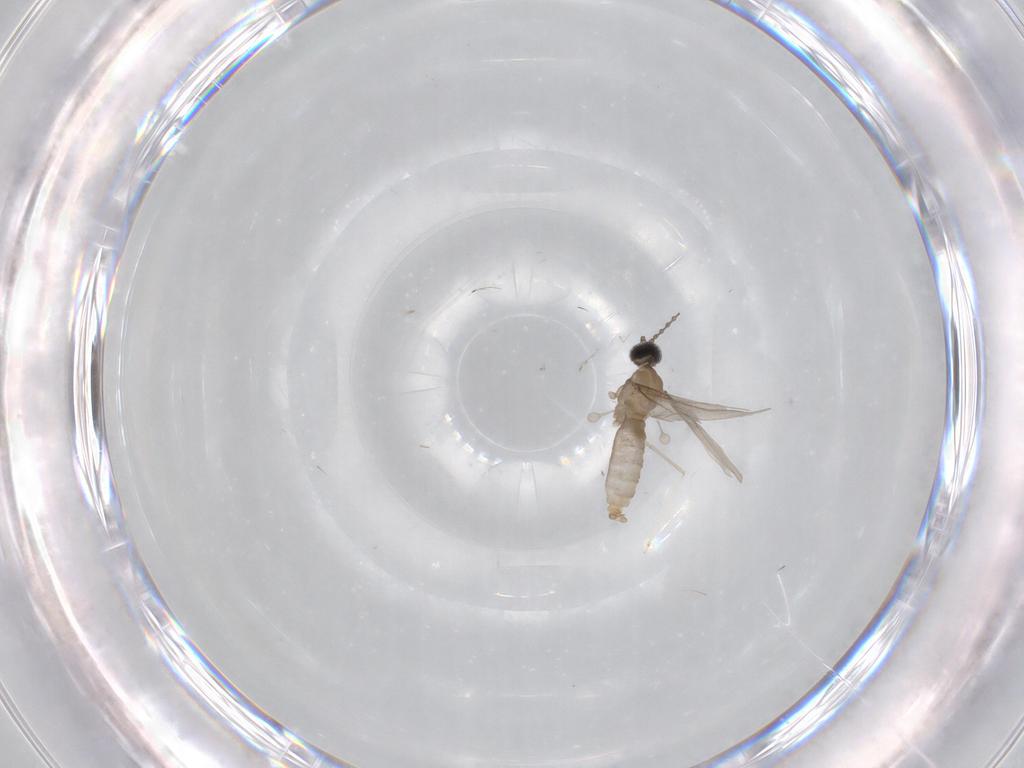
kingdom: Animalia
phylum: Arthropoda
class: Insecta
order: Diptera
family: Cecidomyiidae
